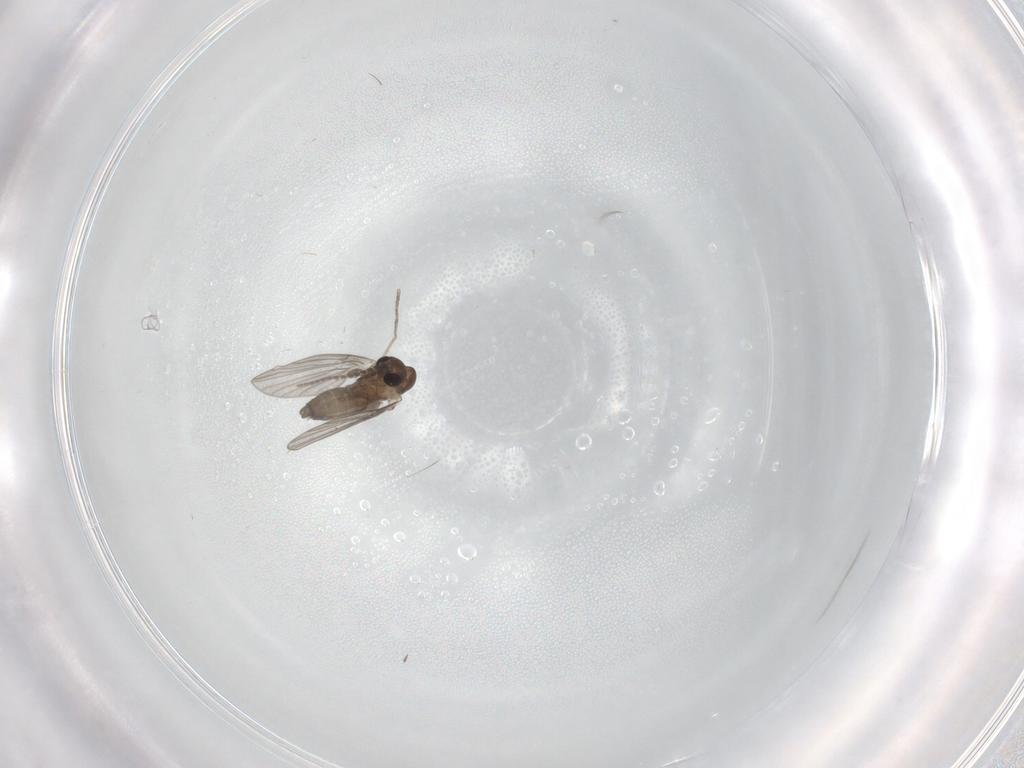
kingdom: Animalia
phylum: Arthropoda
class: Insecta
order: Diptera
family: Psychodidae
